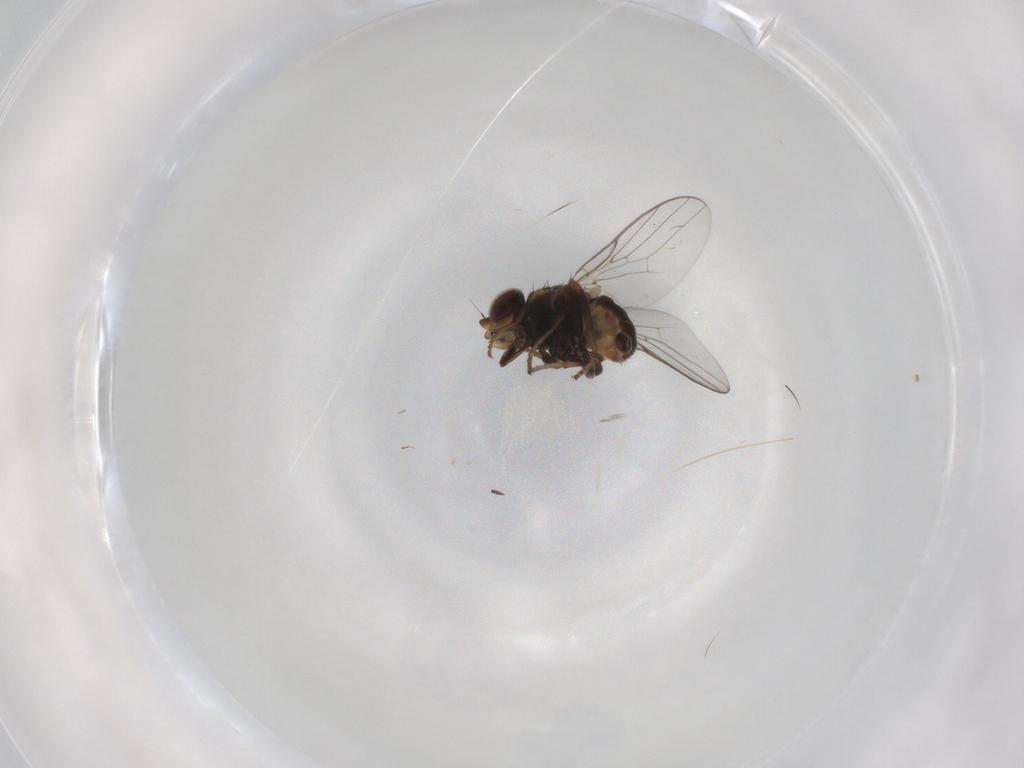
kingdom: Animalia
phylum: Arthropoda
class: Insecta
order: Diptera
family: Chloropidae
